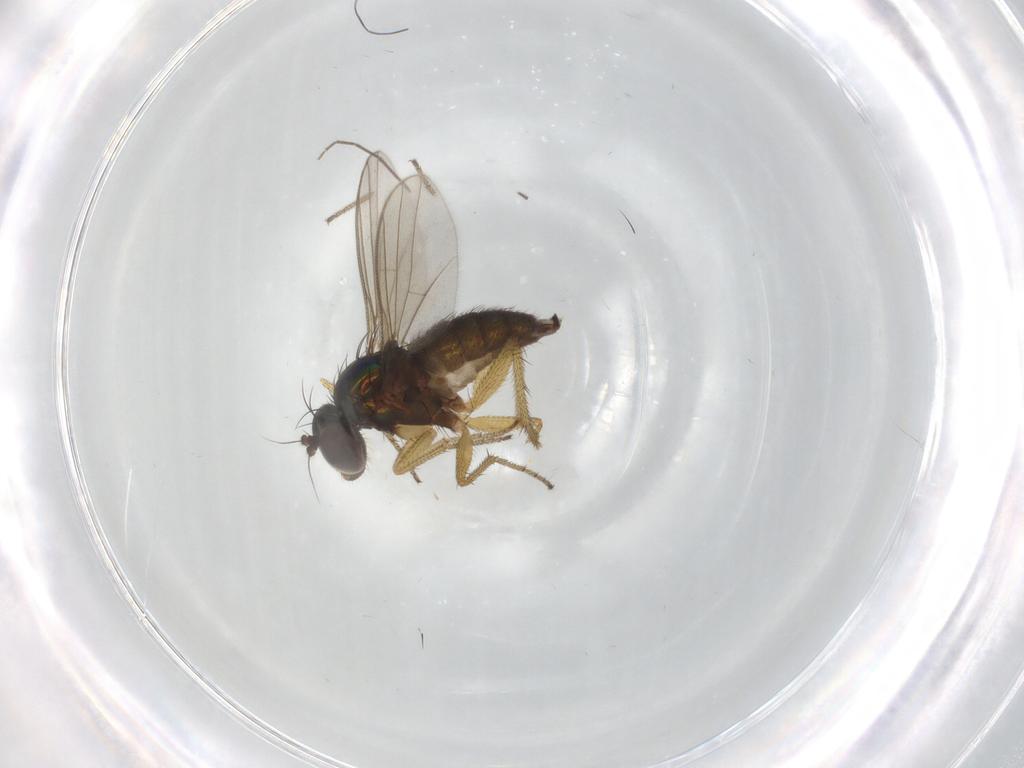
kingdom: Animalia
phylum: Arthropoda
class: Insecta
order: Diptera
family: Dolichopodidae
